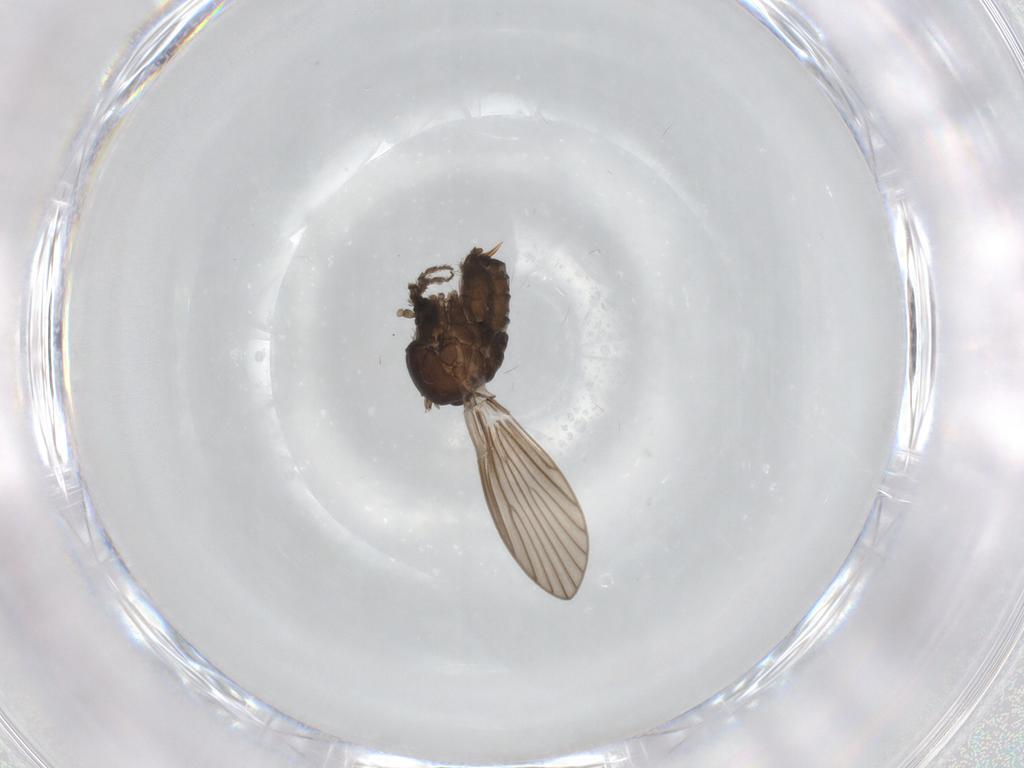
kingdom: Animalia
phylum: Arthropoda
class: Insecta
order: Diptera
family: Psychodidae
